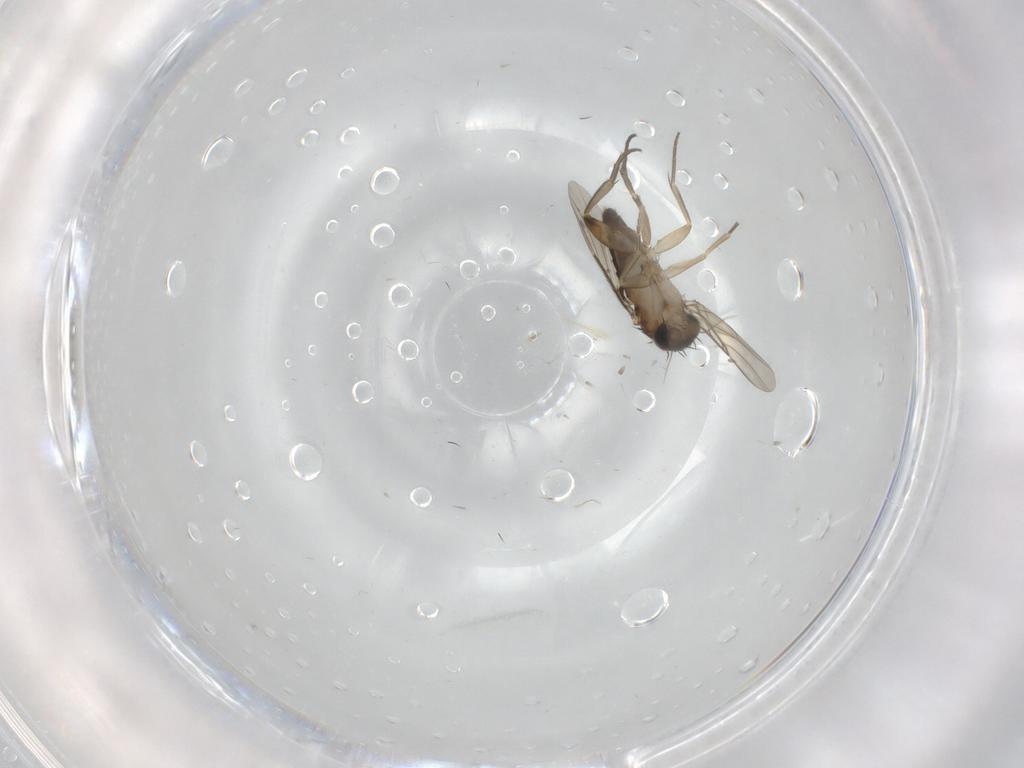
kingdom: Animalia
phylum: Arthropoda
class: Insecta
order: Diptera
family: Phoridae
